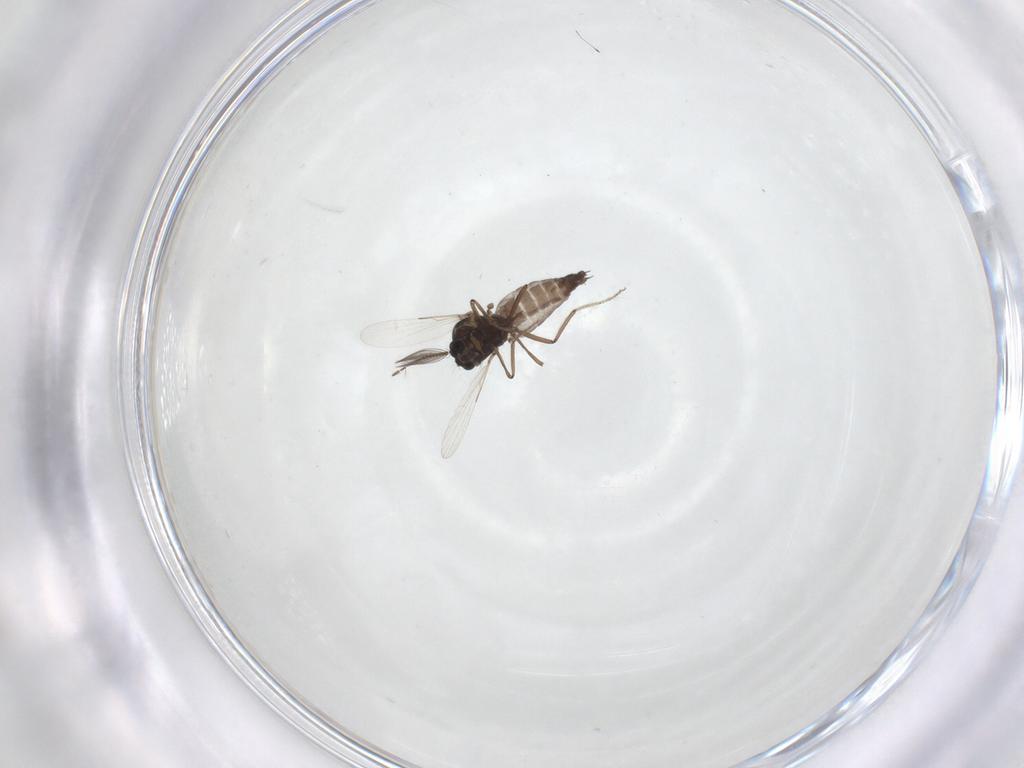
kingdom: Animalia
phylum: Arthropoda
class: Insecta
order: Diptera
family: Ceratopogonidae
